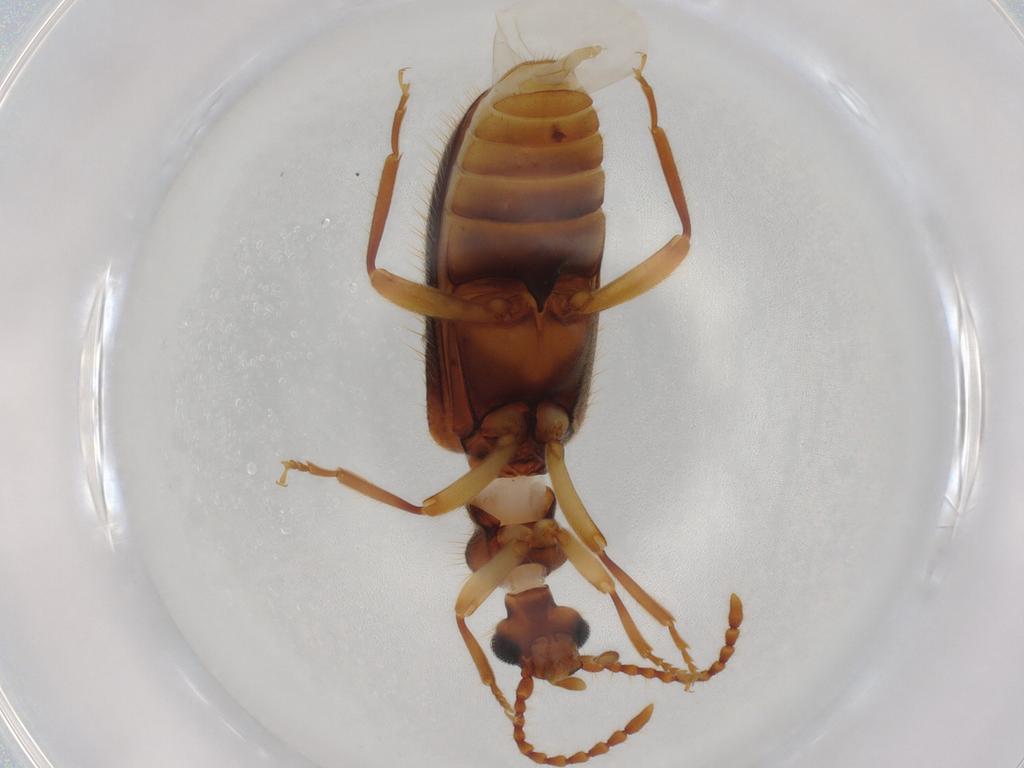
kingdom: Animalia
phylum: Arthropoda
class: Insecta
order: Coleoptera
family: Anthicidae
